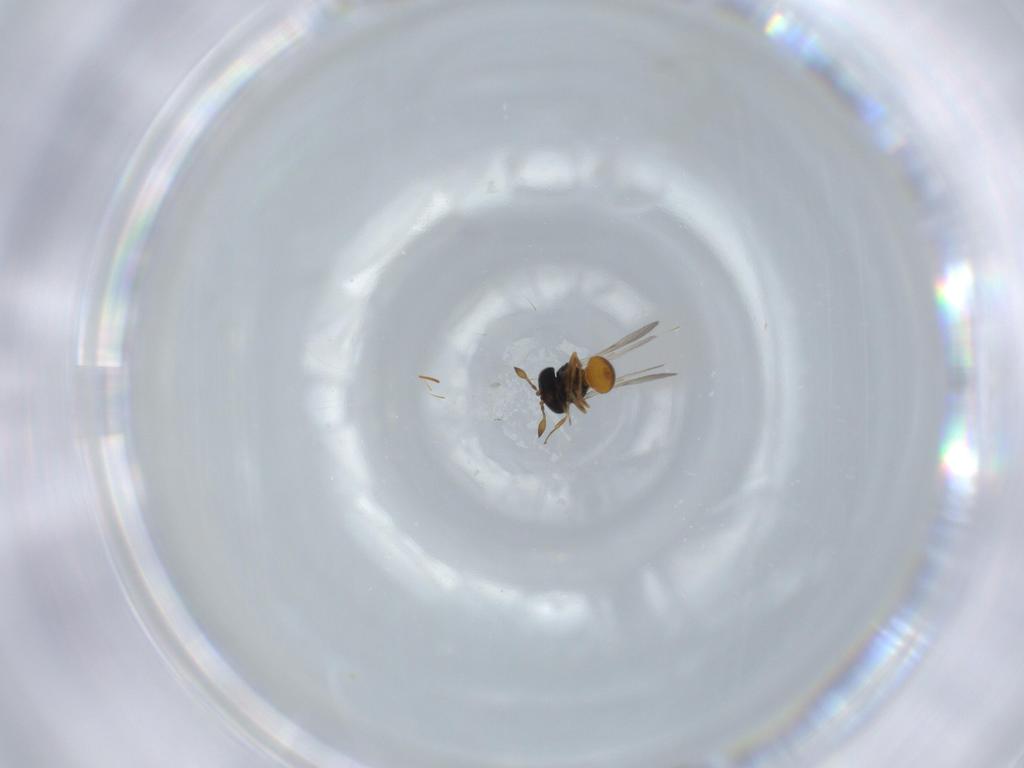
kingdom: Animalia
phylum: Arthropoda
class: Insecta
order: Hymenoptera
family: Scelionidae
